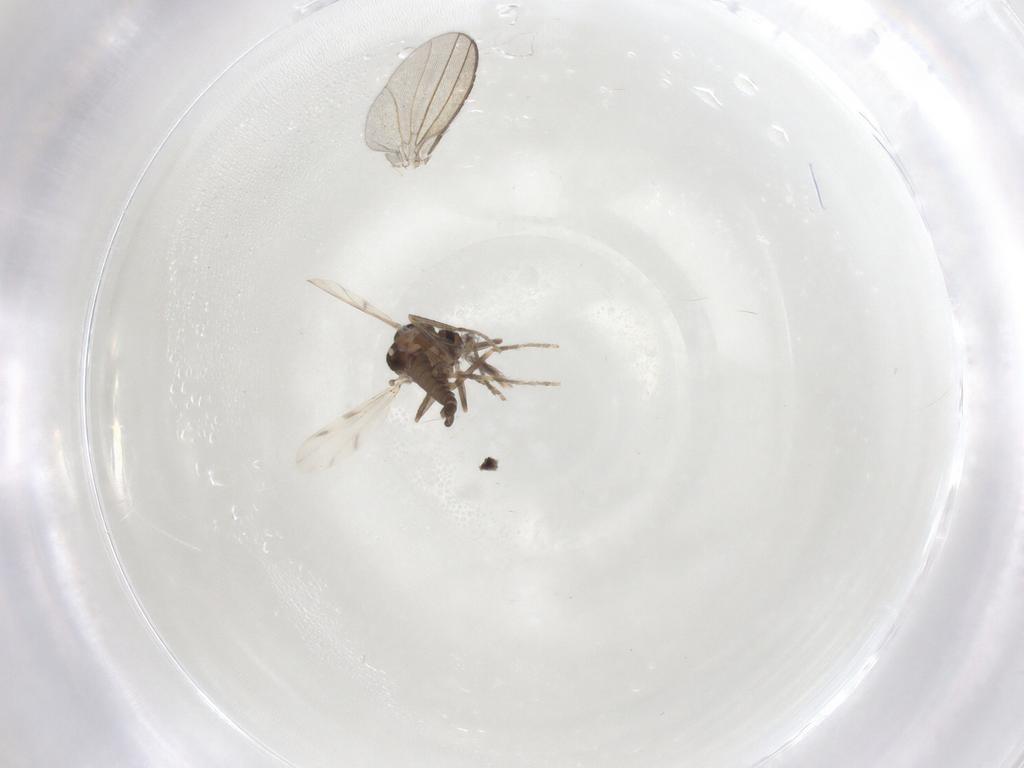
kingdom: Animalia
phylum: Arthropoda
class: Insecta
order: Diptera
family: Ceratopogonidae
